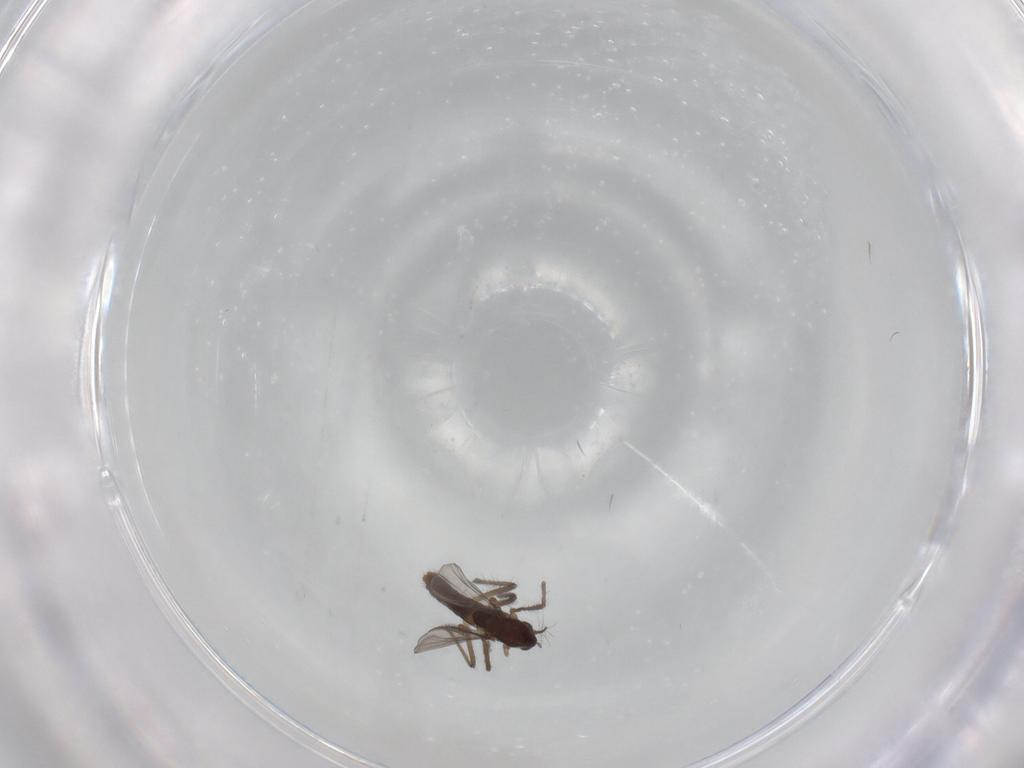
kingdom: Animalia
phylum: Arthropoda
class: Insecta
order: Diptera
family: Chironomidae
